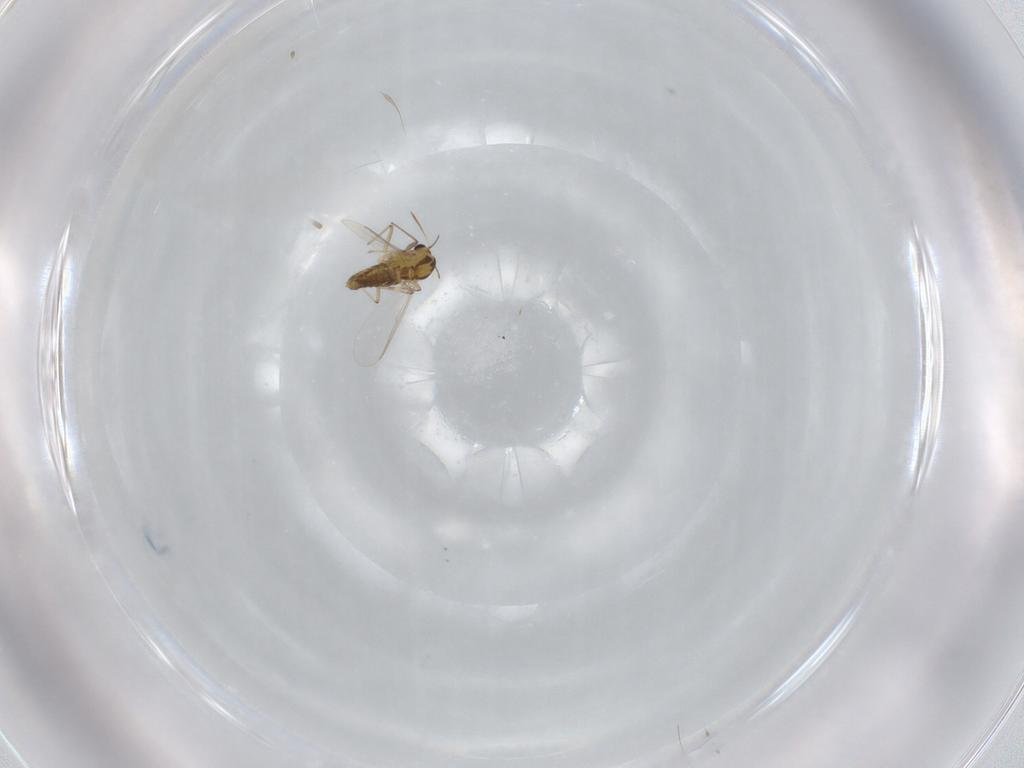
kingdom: Animalia
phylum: Arthropoda
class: Insecta
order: Diptera
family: Chironomidae
